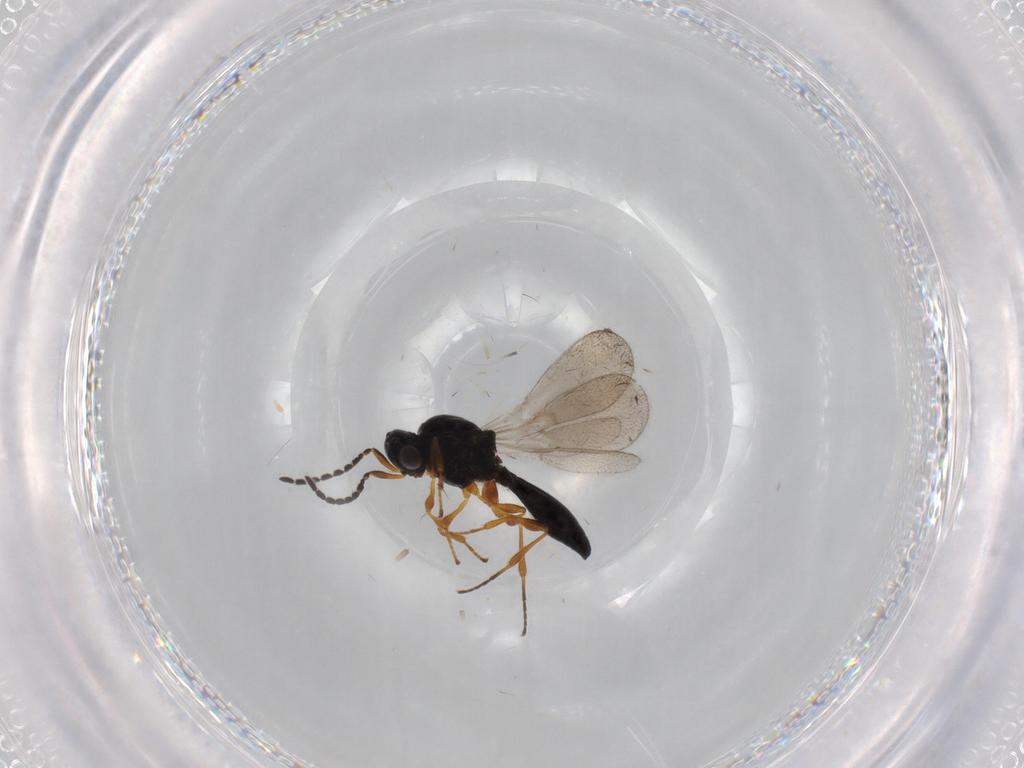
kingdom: Animalia
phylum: Arthropoda
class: Insecta
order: Hymenoptera
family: Platygastridae
